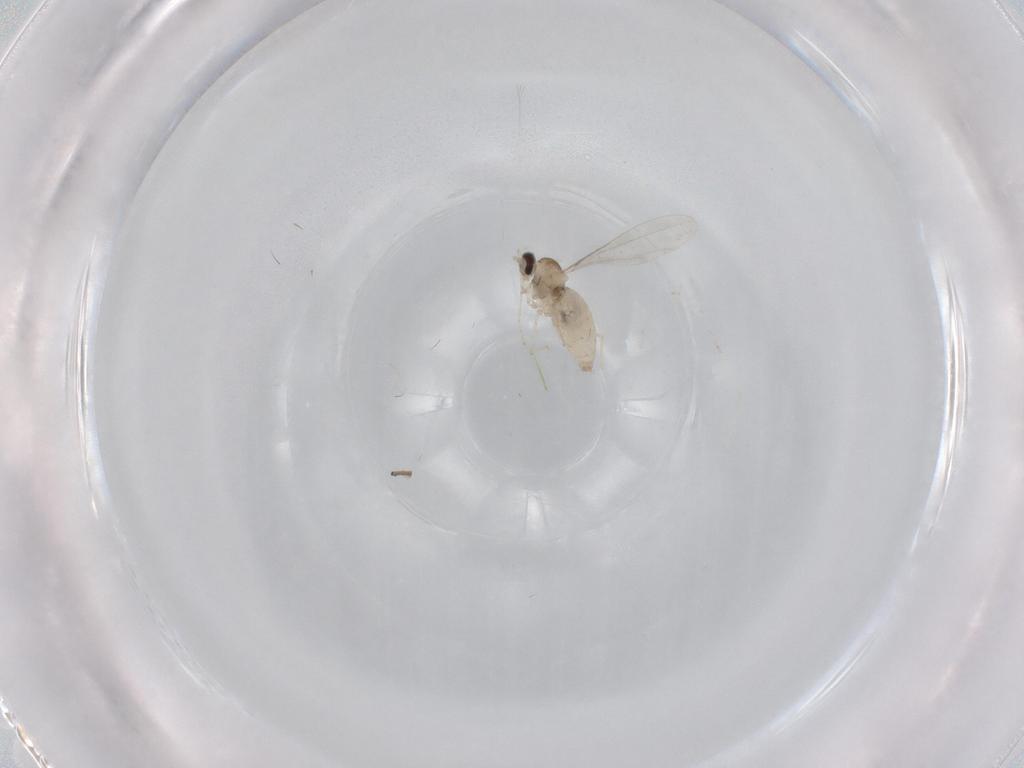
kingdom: Animalia
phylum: Arthropoda
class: Insecta
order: Diptera
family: Cecidomyiidae
